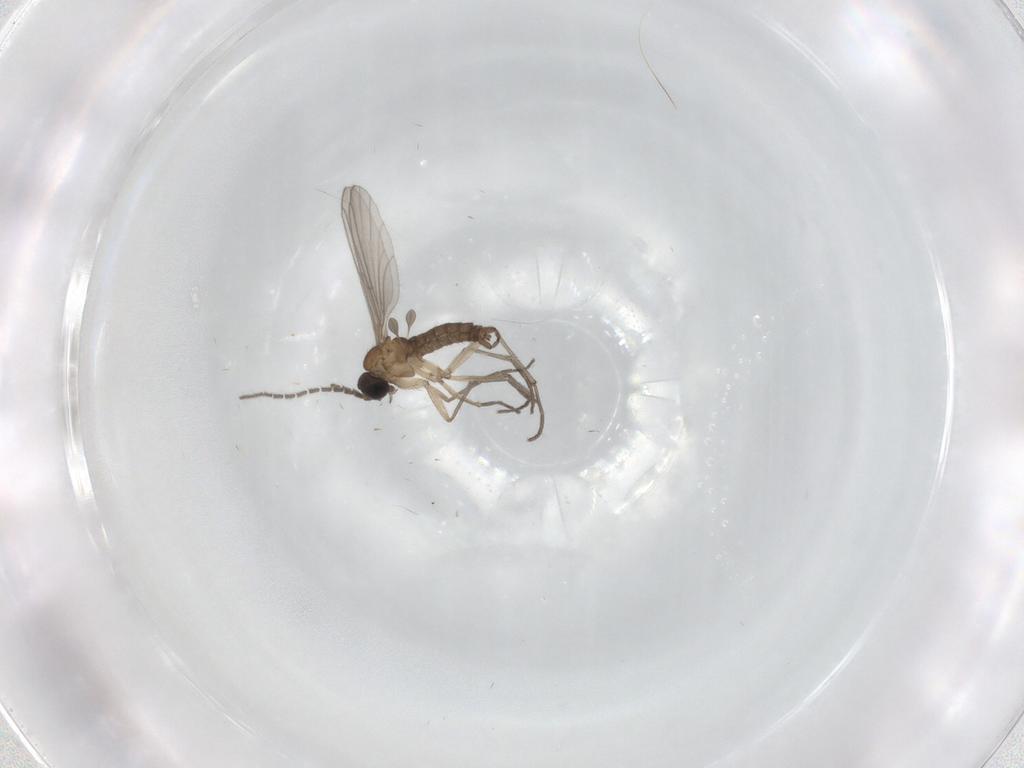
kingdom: Animalia
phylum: Arthropoda
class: Insecta
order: Diptera
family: Sciaridae
